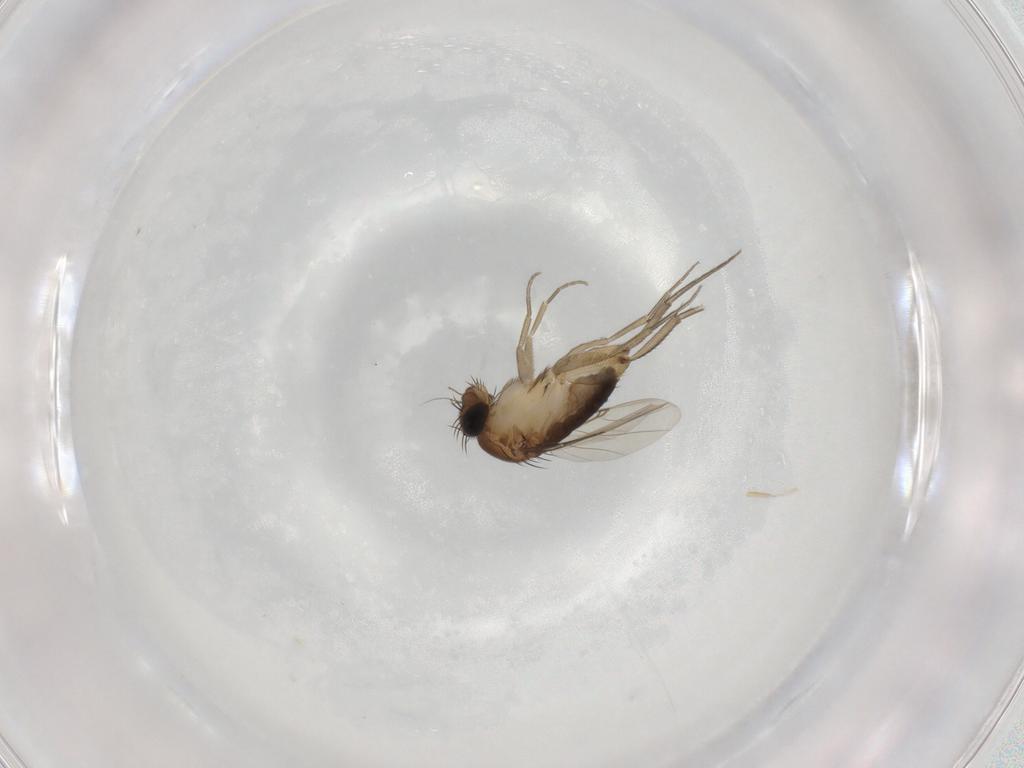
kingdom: Animalia
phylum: Arthropoda
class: Insecta
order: Diptera
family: Phoridae
